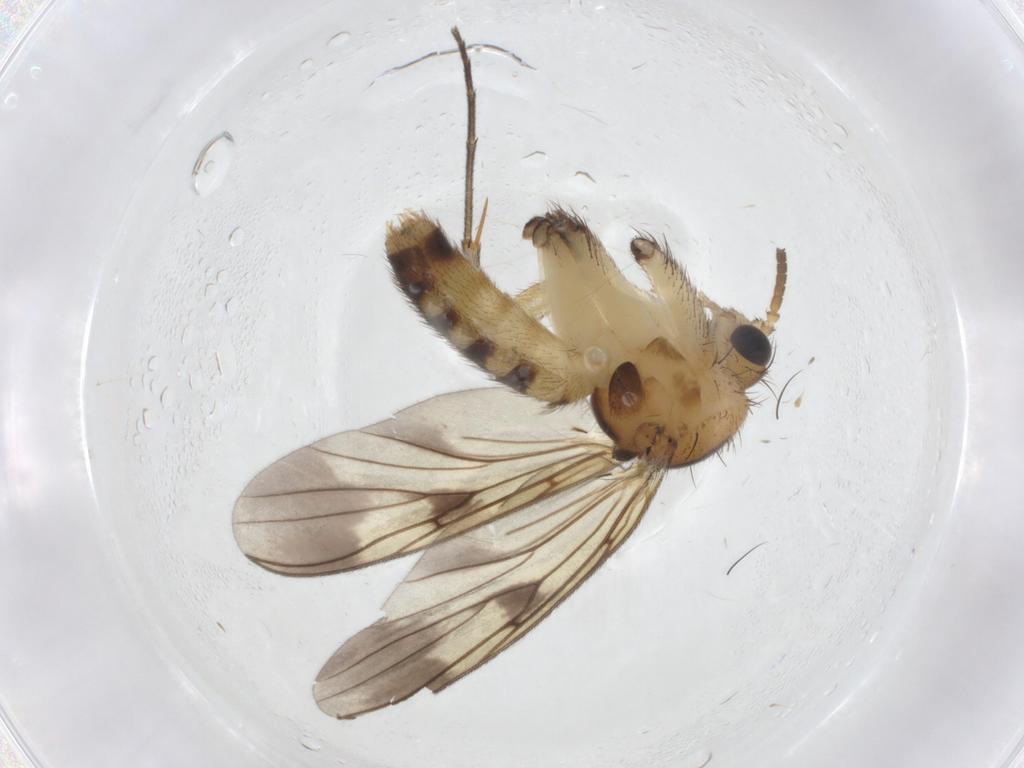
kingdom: Animalia
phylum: Arthropoda
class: Insecta
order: Diptera
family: Mycetophilidae
